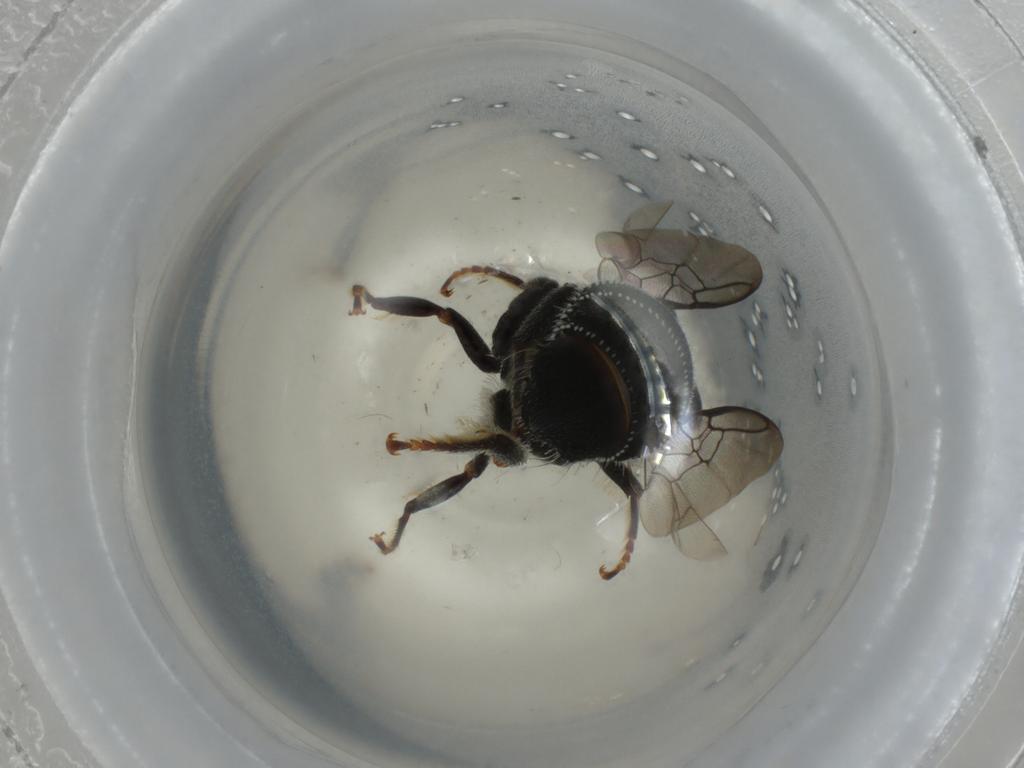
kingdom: Animalia
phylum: Arthropoda
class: Insecta
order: Hymenoptera
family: Apidae
